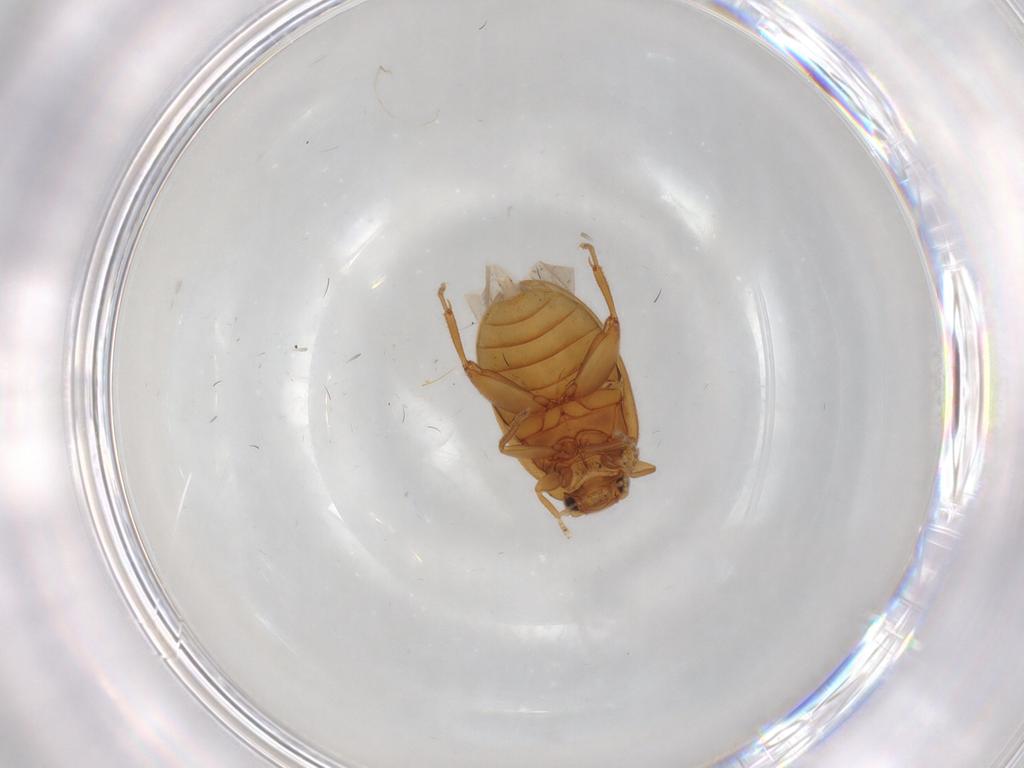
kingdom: Animalia
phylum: Arthropoda
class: Insecta
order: Coleoptera
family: Scirtidae
